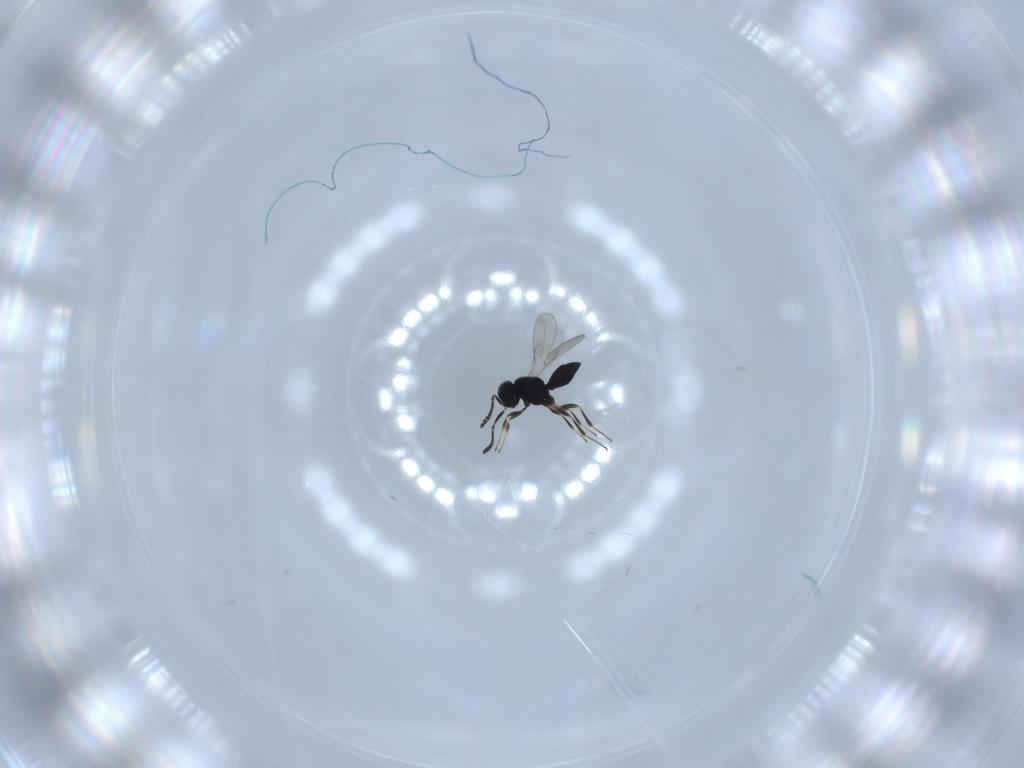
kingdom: Animalia
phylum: Arthropoda
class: Insecta
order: Hymenoptera
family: Scelionidae
